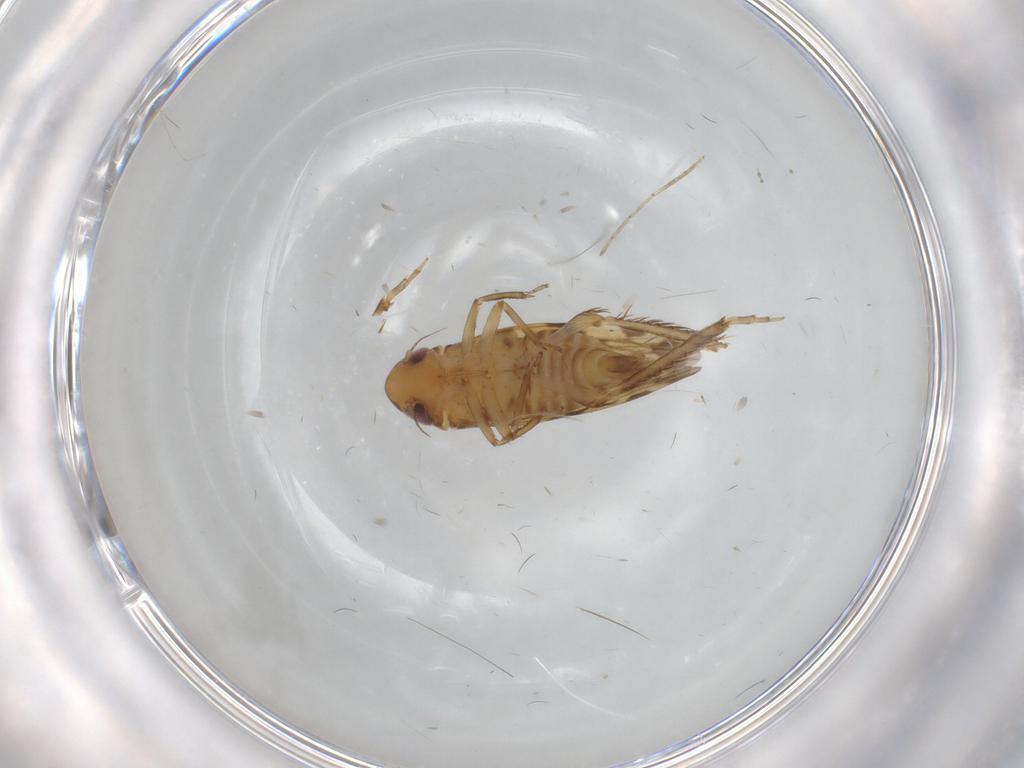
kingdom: Animalia
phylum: Arthropoda
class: Insecta
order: Hemiptera
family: Cicadellidae
